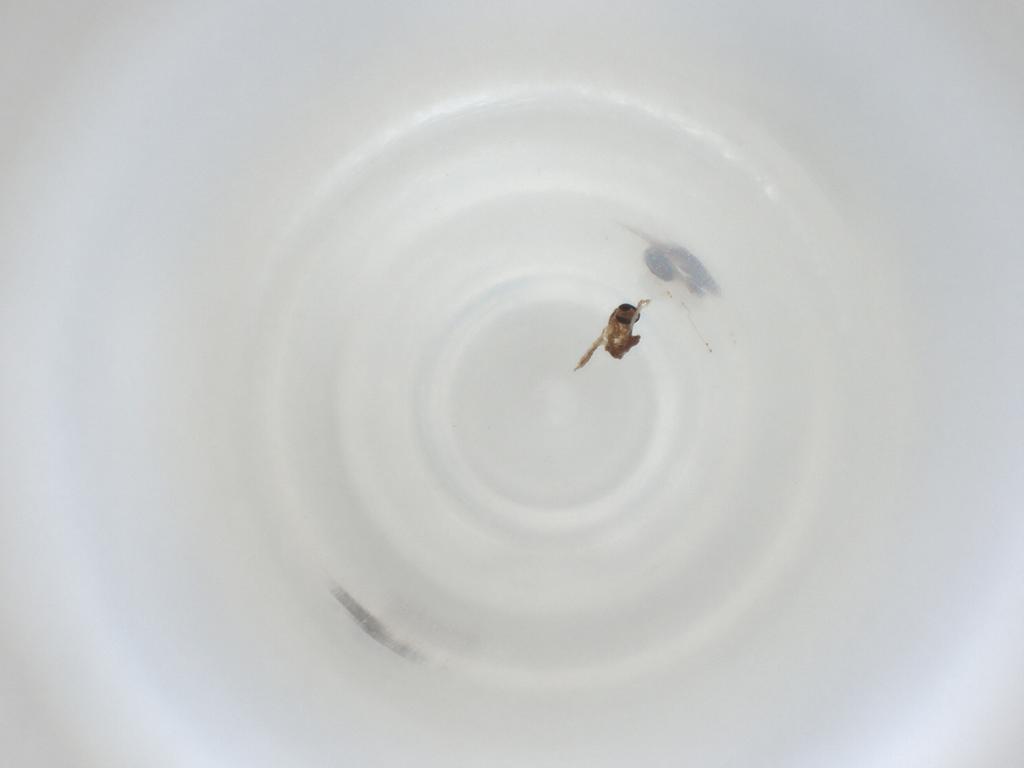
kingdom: Animalia
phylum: Arthropoda
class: Insecta
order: Diptera
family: Cecidomyiidae
